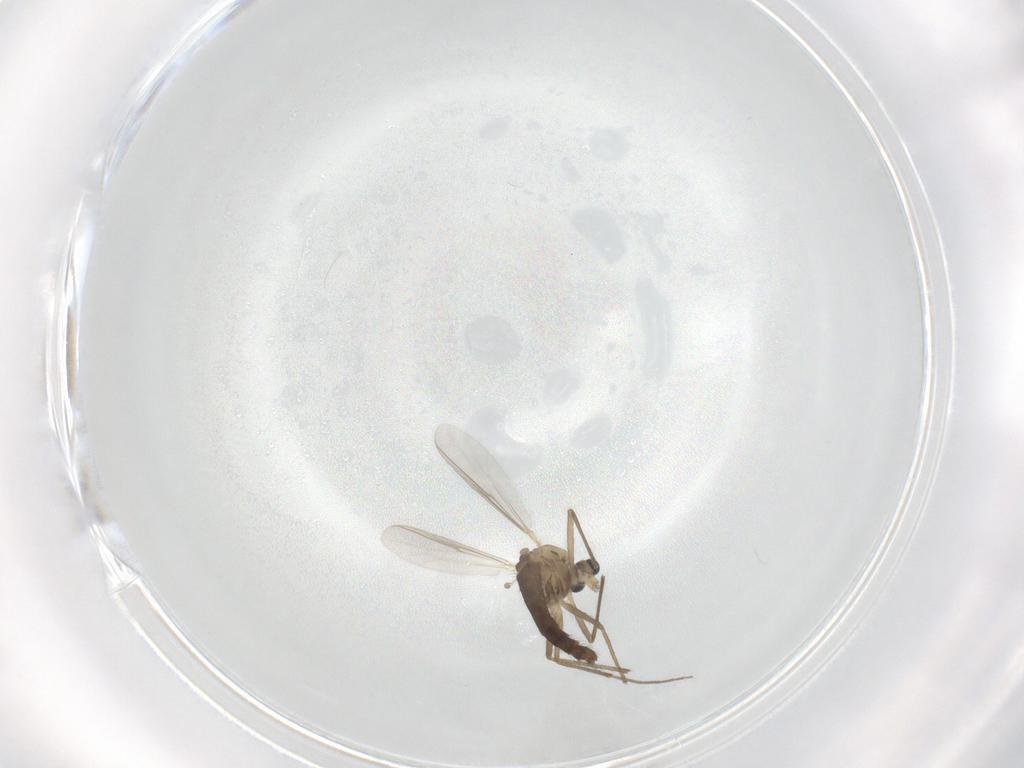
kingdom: Animalia
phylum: Arthropoda
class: Insecta
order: Diptera
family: Chironomidae
